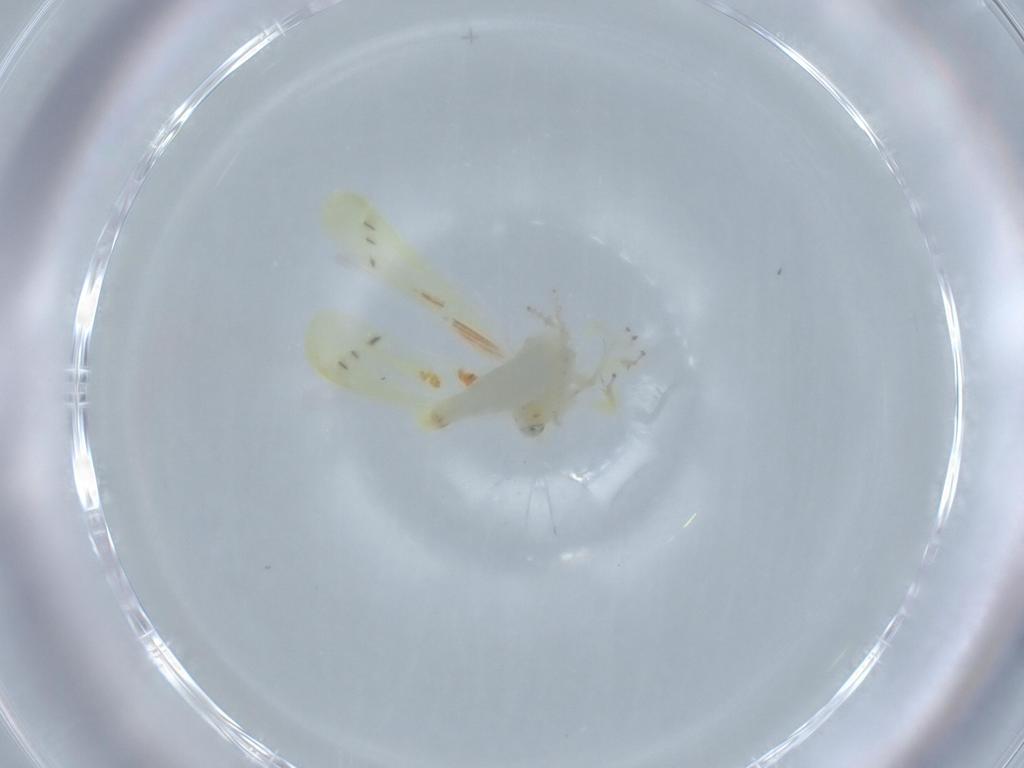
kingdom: Animalia
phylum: Arthropoda
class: Insecta
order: Hemiptera
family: Cicadellidae
